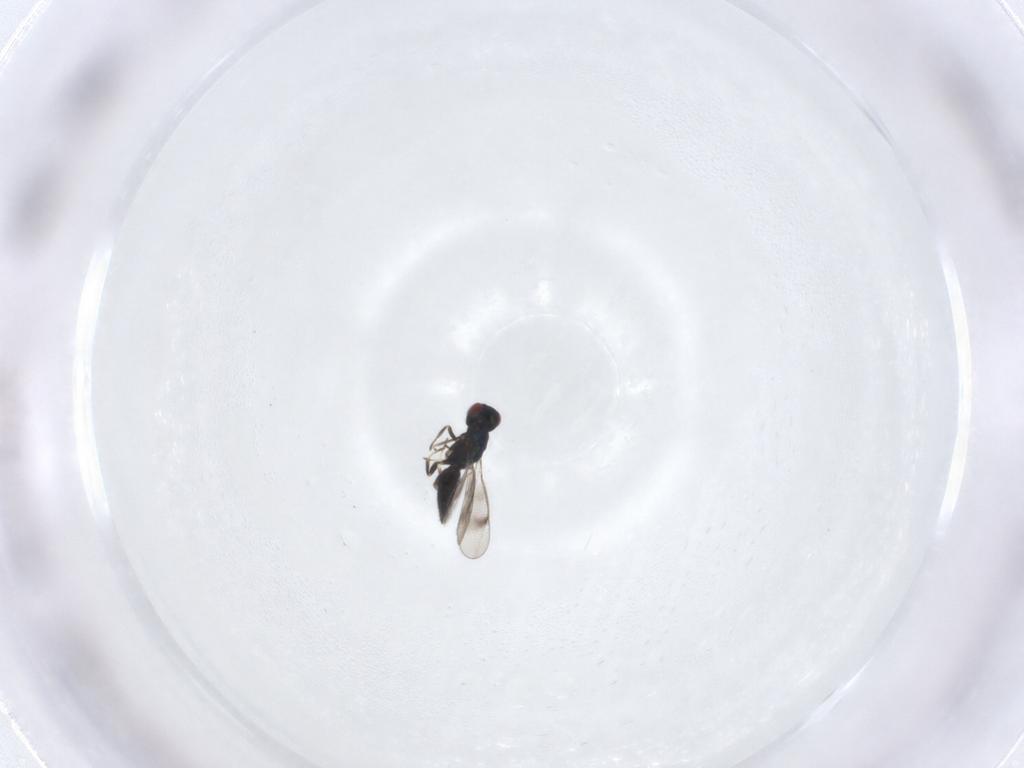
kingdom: Animalia
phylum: Arthropoda
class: Insecta
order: Hymenoptera
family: Eulophidae
